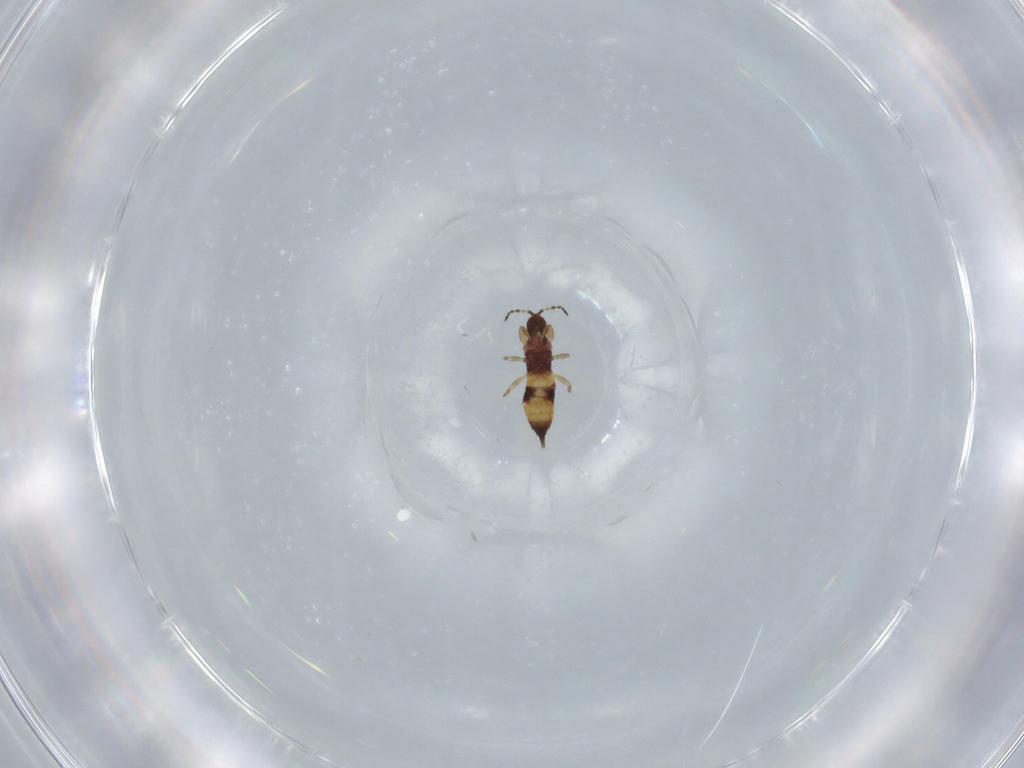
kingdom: Animalia
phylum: Arthropoda
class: Insecta
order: Thysanoptera
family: Phlaeothripidae
